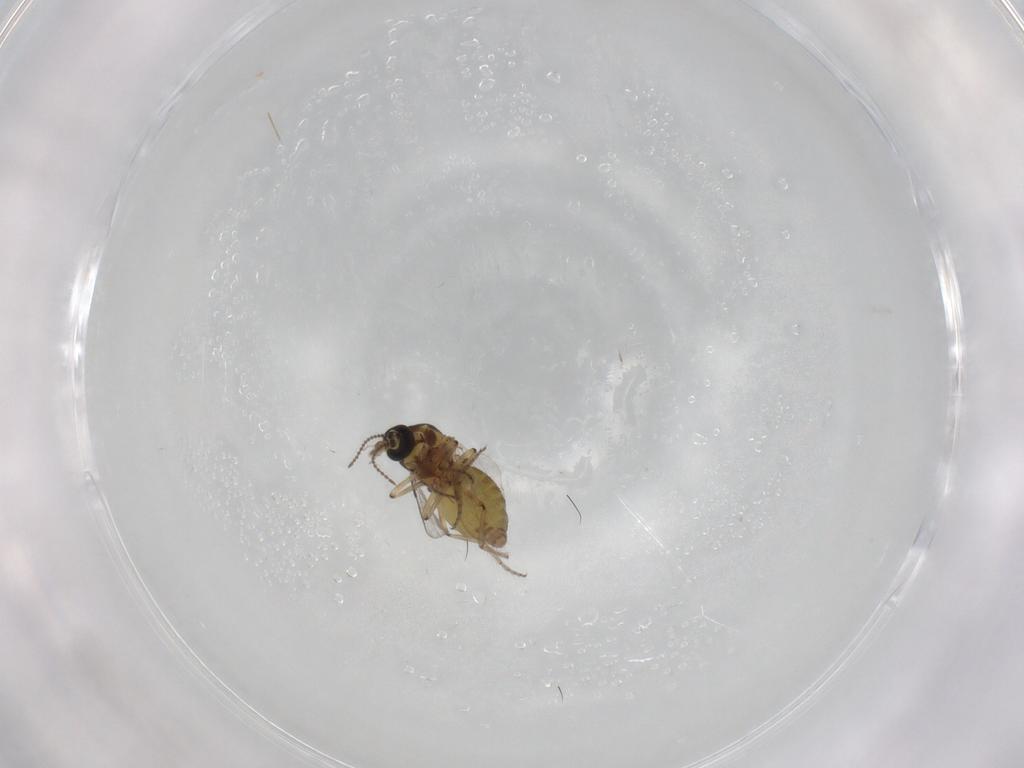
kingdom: Animalia
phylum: Arthropoda
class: Insecta
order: Diptera
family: Ceratopogonidae
